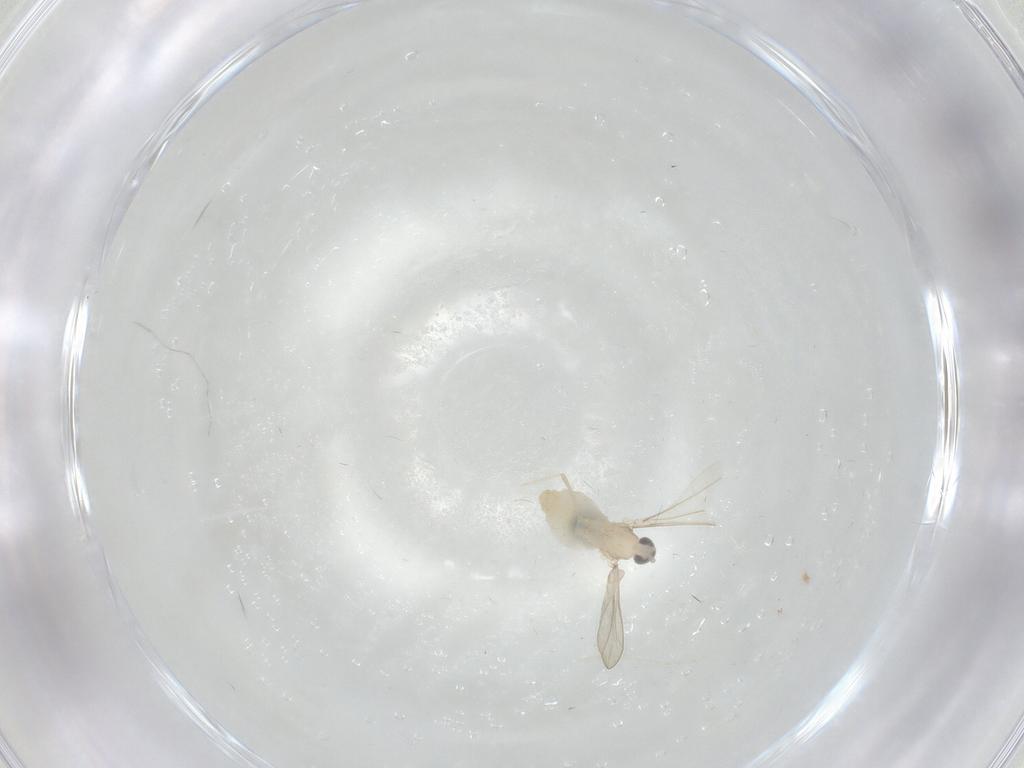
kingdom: Animalia
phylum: Arthropoda
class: Insecta
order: Diptera
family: Cecidomyiidae
